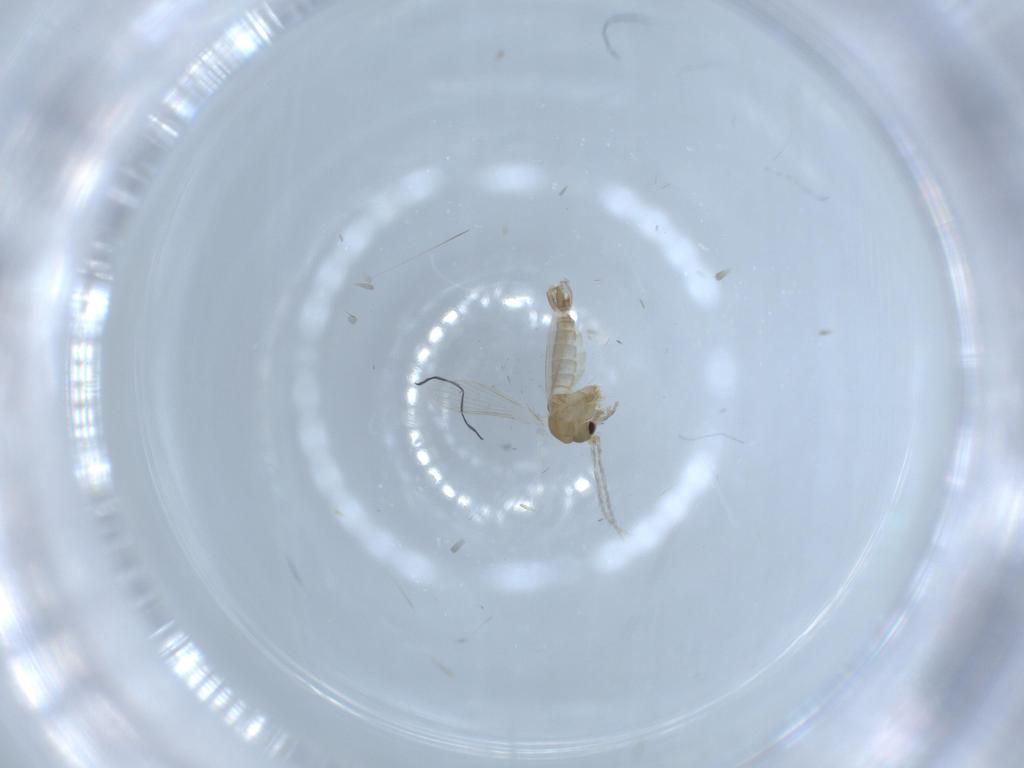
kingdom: Animalia
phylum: Arthropoda
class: Insecta
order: Diptera
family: Psychodidae
